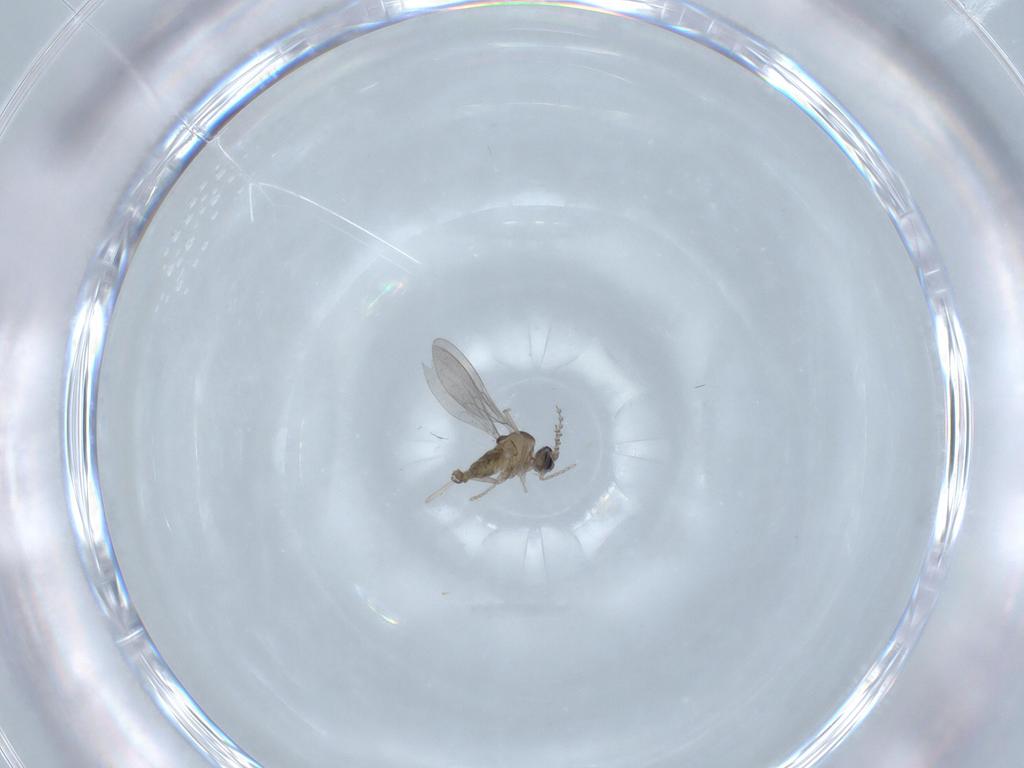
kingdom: Animalia
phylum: Arthropoda
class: Insecta
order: Diptera
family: Cecidomyiidae
